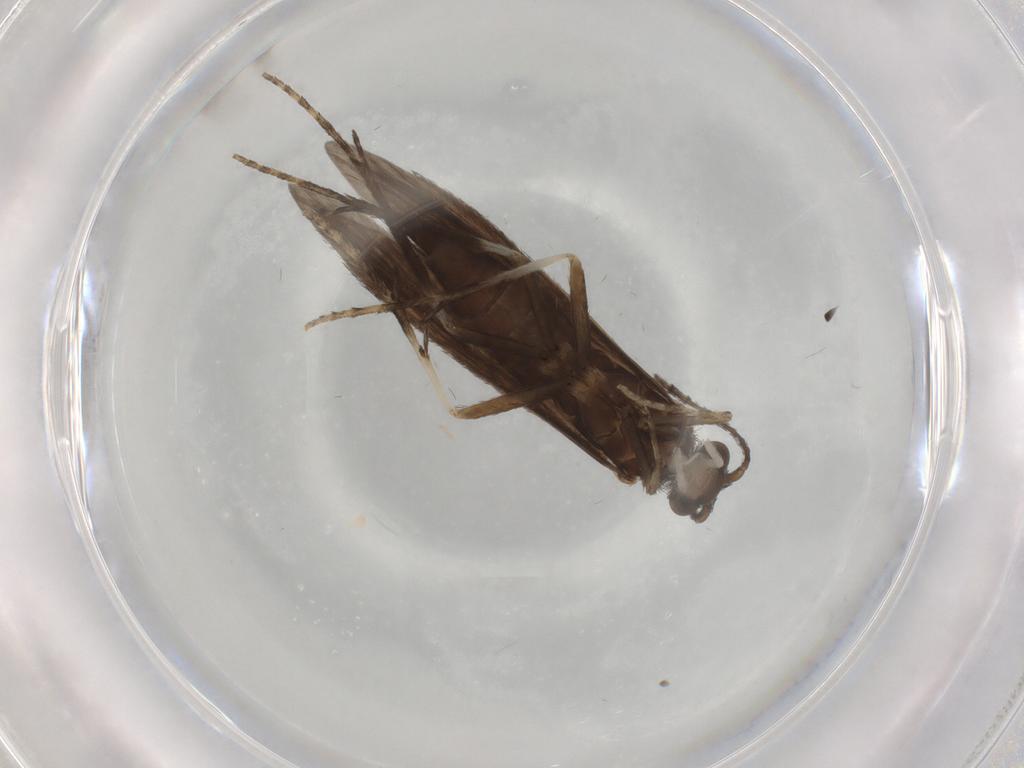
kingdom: Animalia
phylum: Arthropoda
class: Insecta
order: Trichoptera
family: Xiphocentronidae
